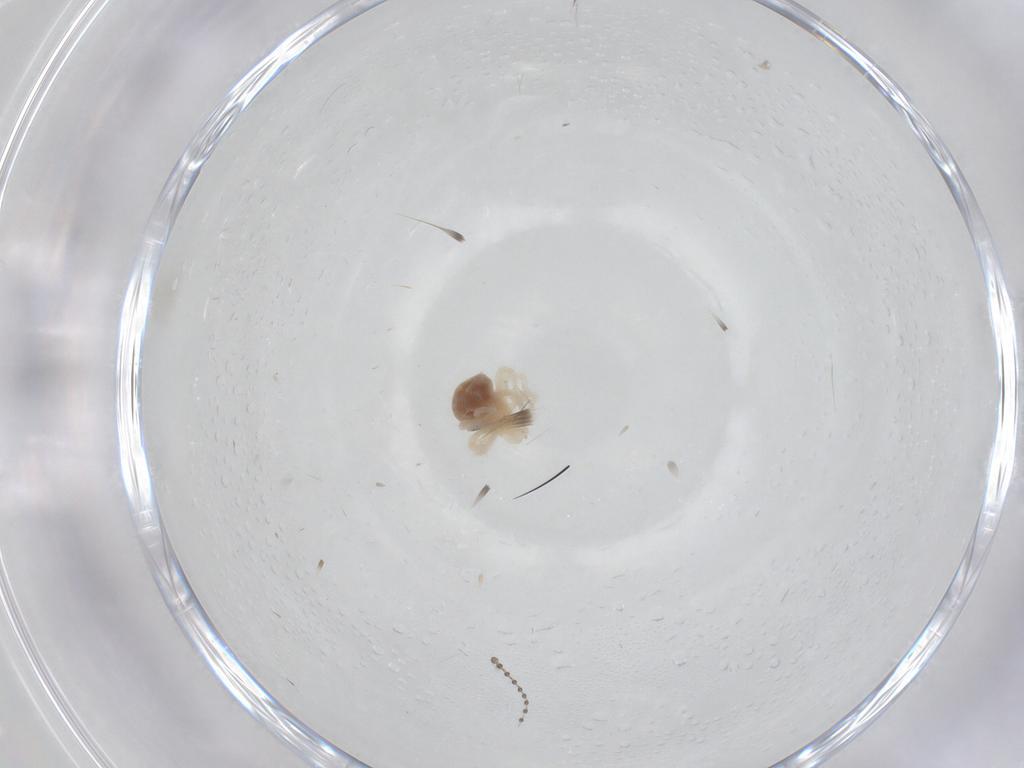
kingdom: Animalia
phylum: Arthropoda
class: Arachnida
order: Trombidiformes
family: Anystidae
